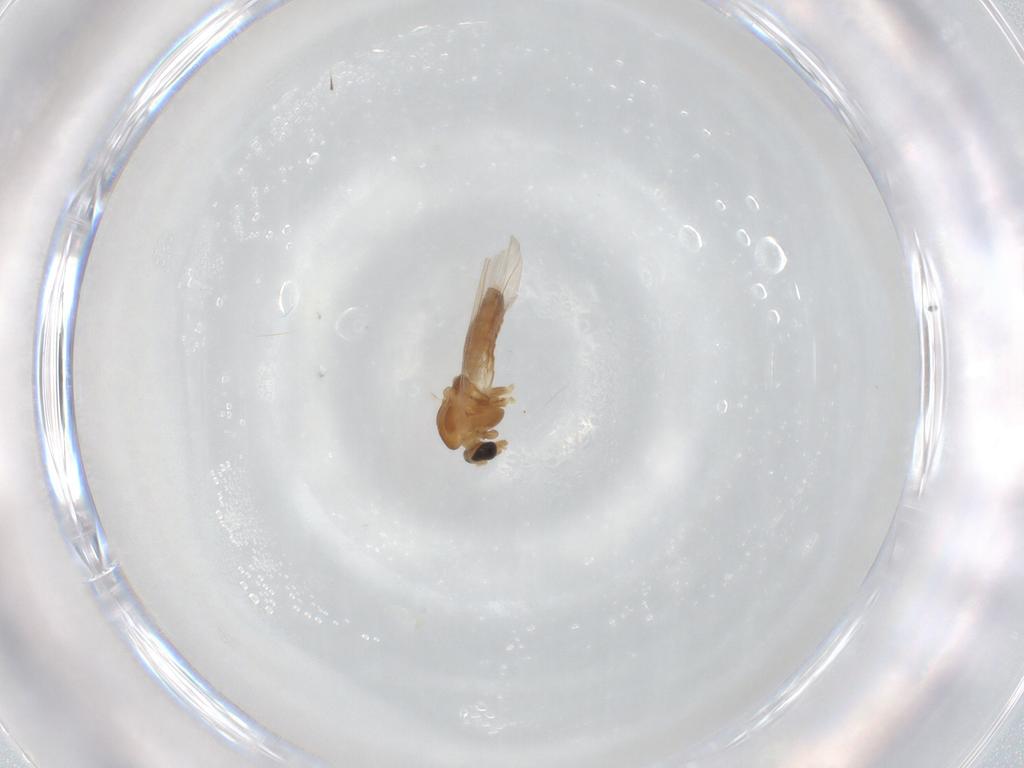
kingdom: Animalia
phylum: Arthropoda
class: Insecta
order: Diptera
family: Chironomidae
